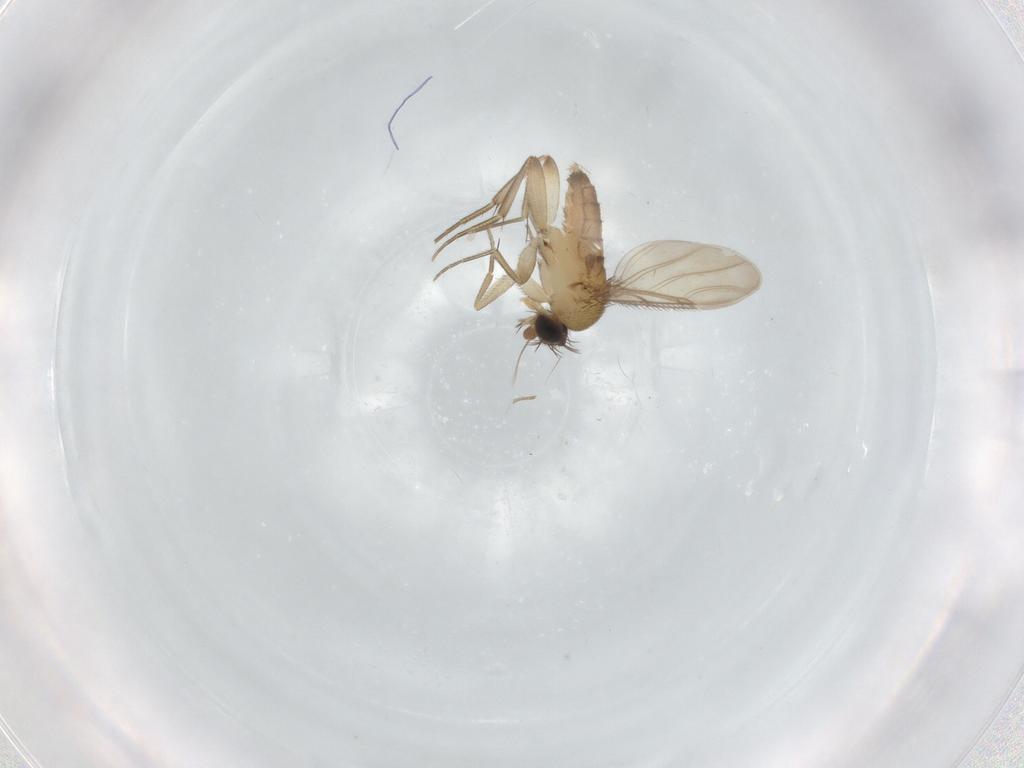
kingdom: Animalia
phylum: Arthropoda
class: Insecta
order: Diptera
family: Phoridae
